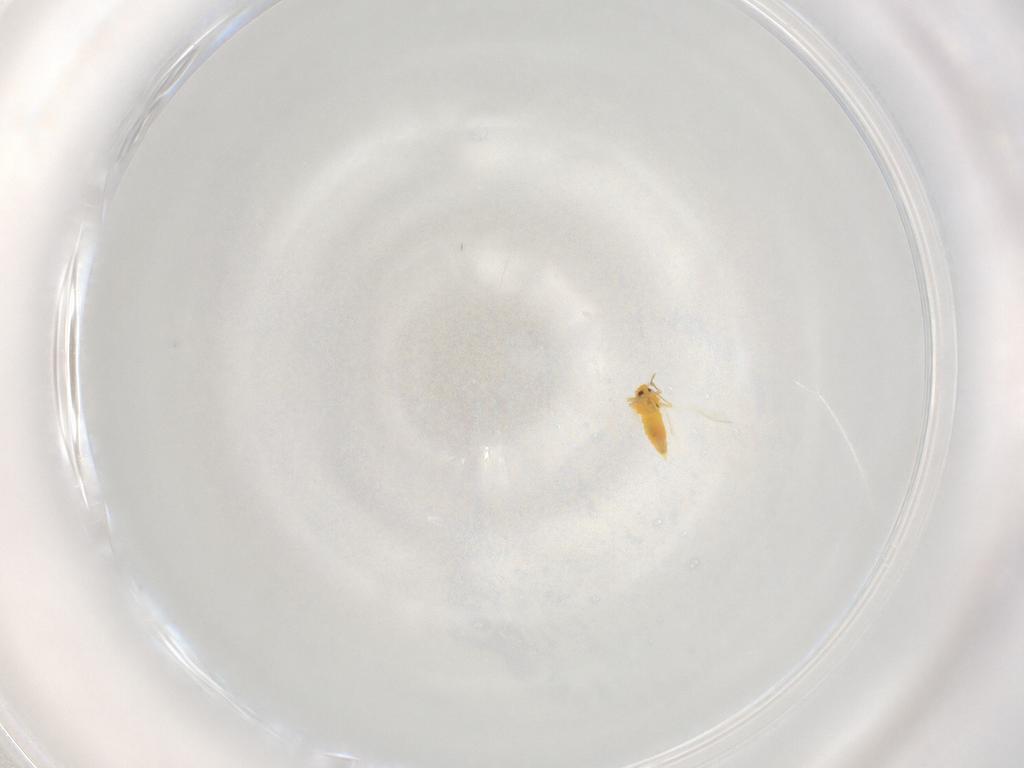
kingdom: Animalia
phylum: Arthropoda
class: Insecta
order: Hemiptera
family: Aleyrodidae
